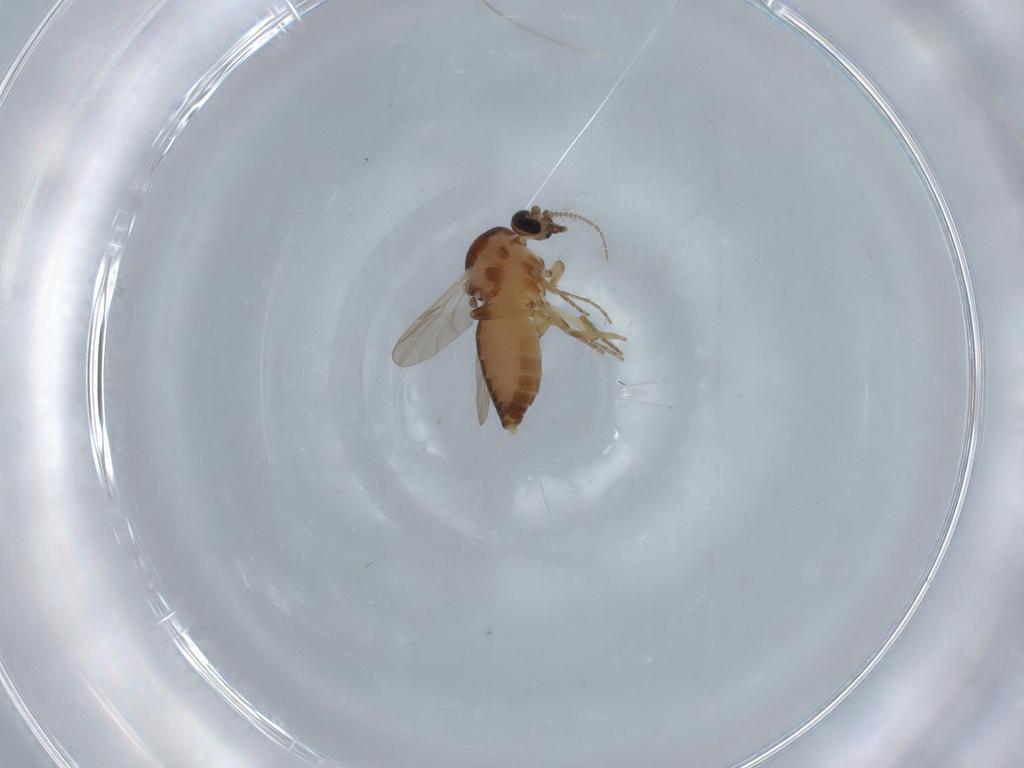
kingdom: Animalia
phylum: Arthropoda
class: Insecta
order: Diptera
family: Ceratopogonidae
